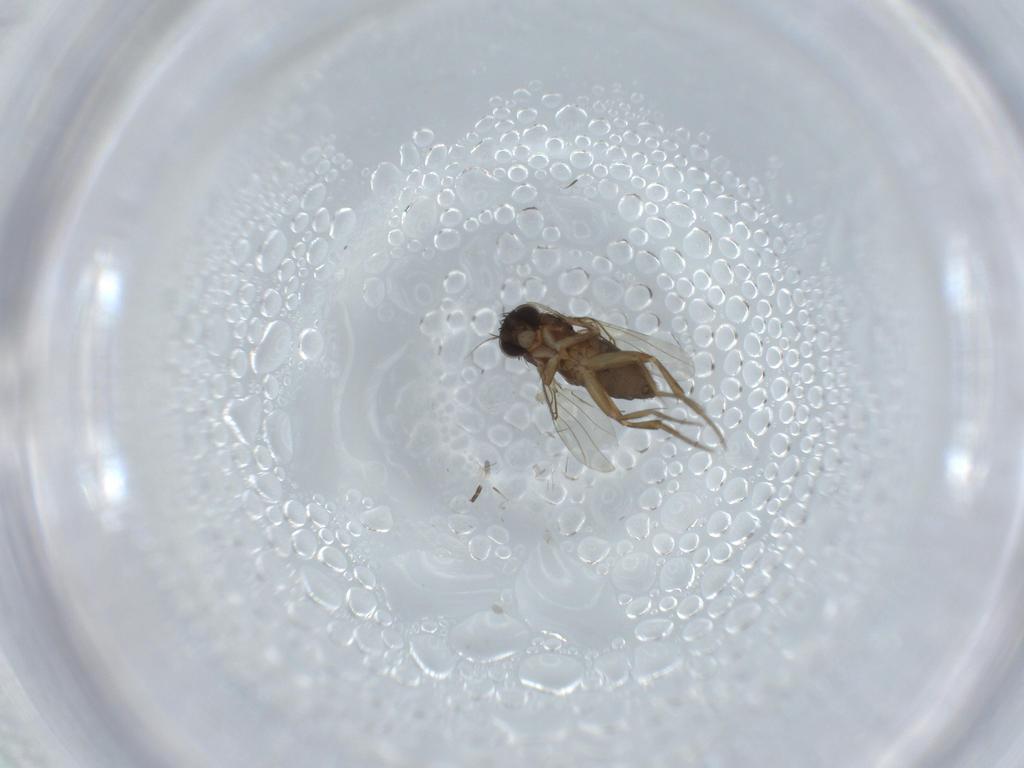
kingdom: Animalia
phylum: Arthropoda
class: Insecta
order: Diptera
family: Phoridae
